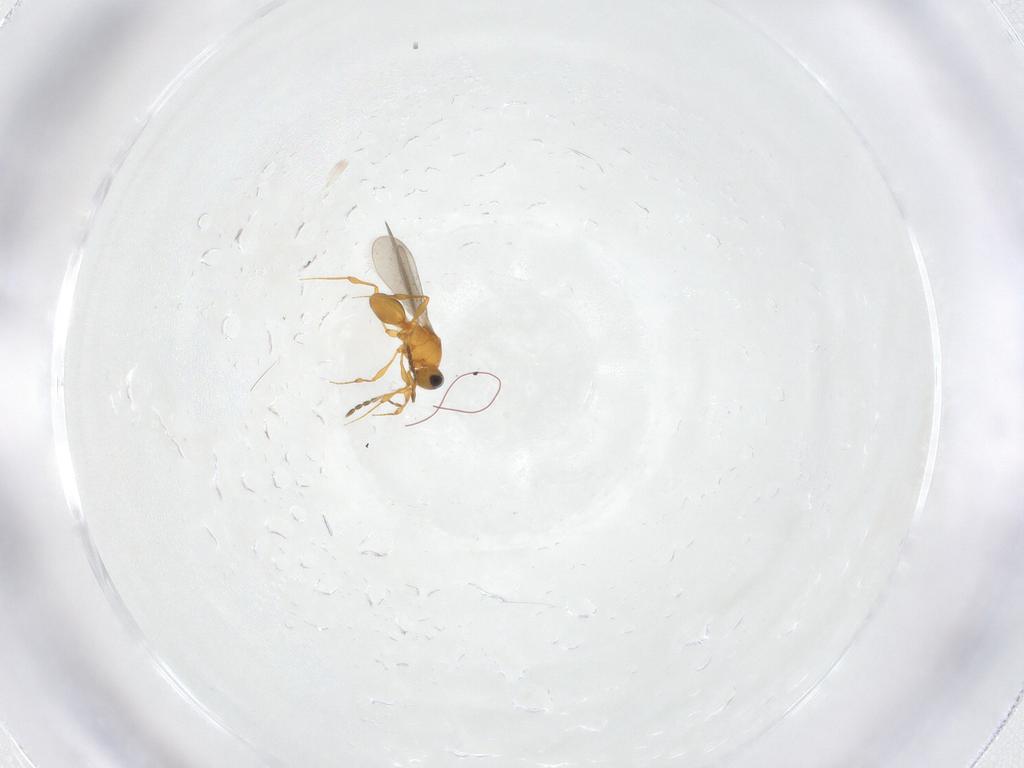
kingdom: Animalia
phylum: Arthropoda
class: Insecta
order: Hymenoptera
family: Platygastridae
